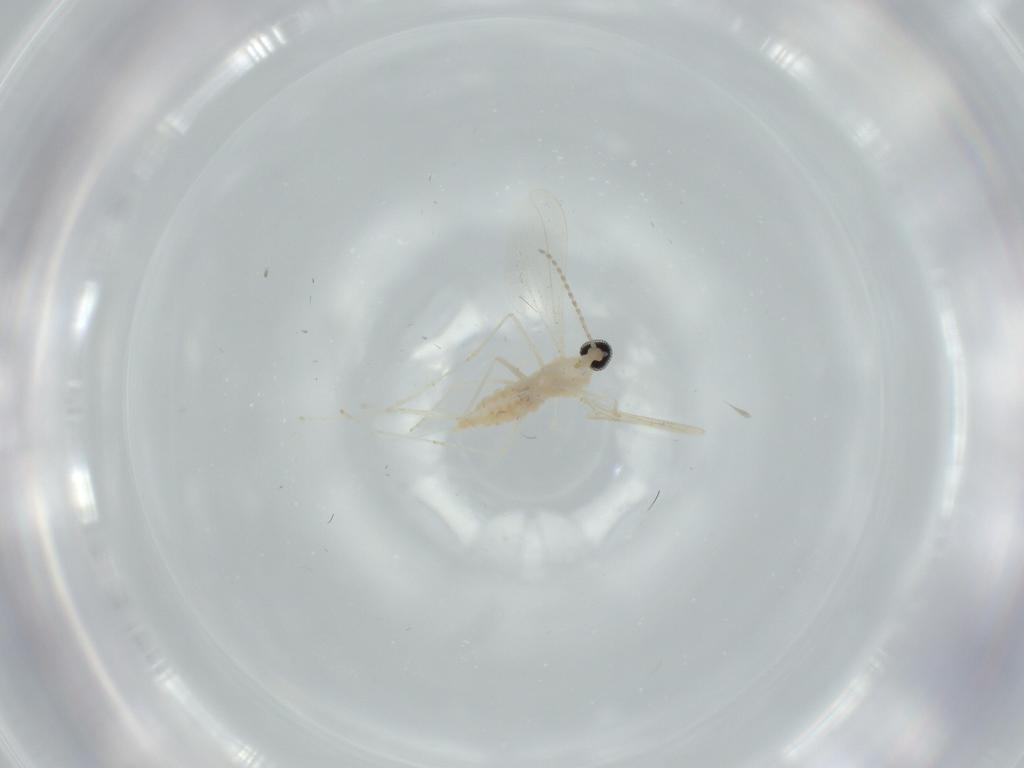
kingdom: Animalia
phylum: Arthropoda
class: Insecta
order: Diptera
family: Cecidomyiidae
